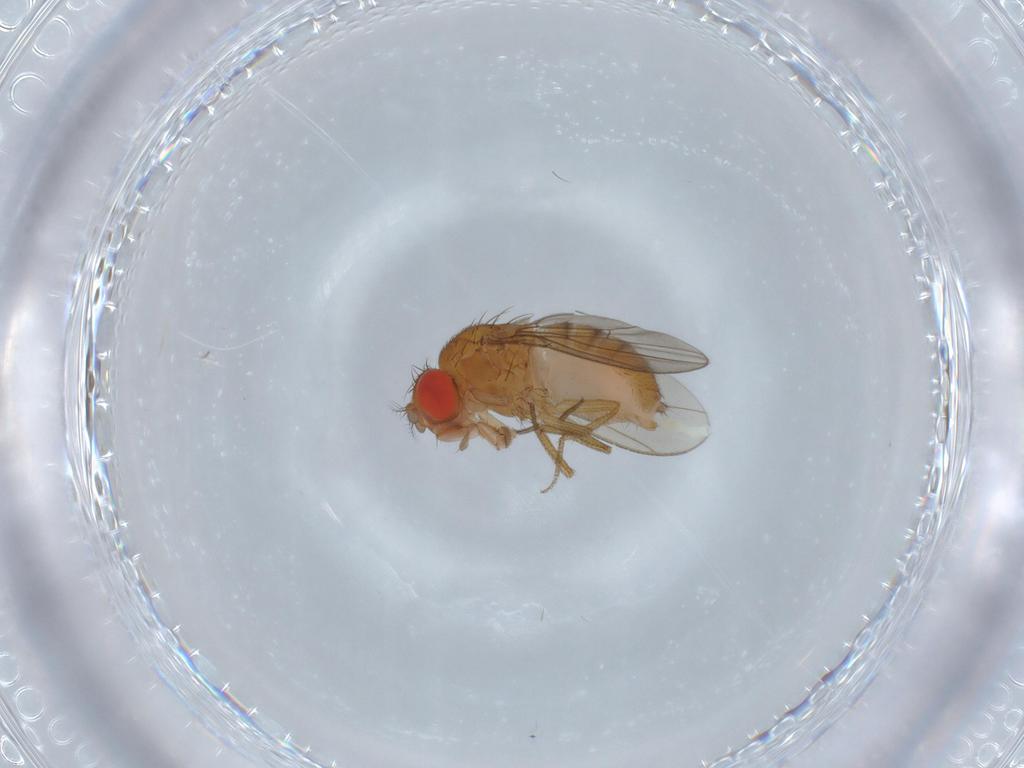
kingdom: Animalia
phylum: Arthropoda
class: Insecta
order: Diptera
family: Drosophilidae
